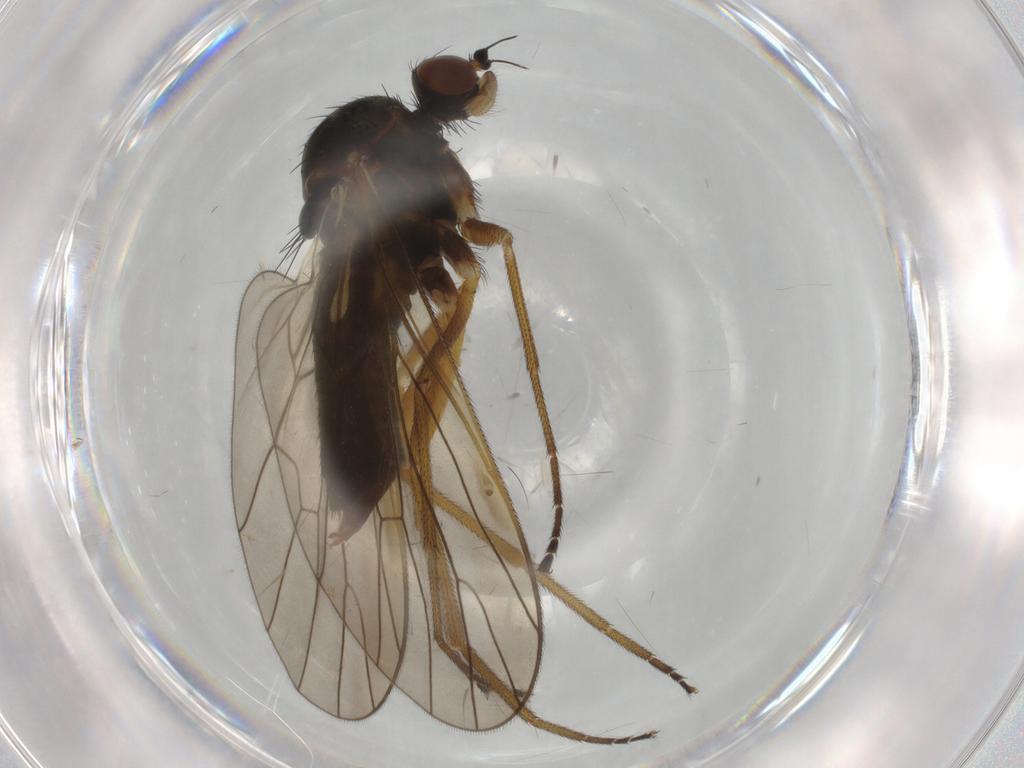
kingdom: Animalia
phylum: Arthropoda
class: Insecta
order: Diptera
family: Brachystomatidae
